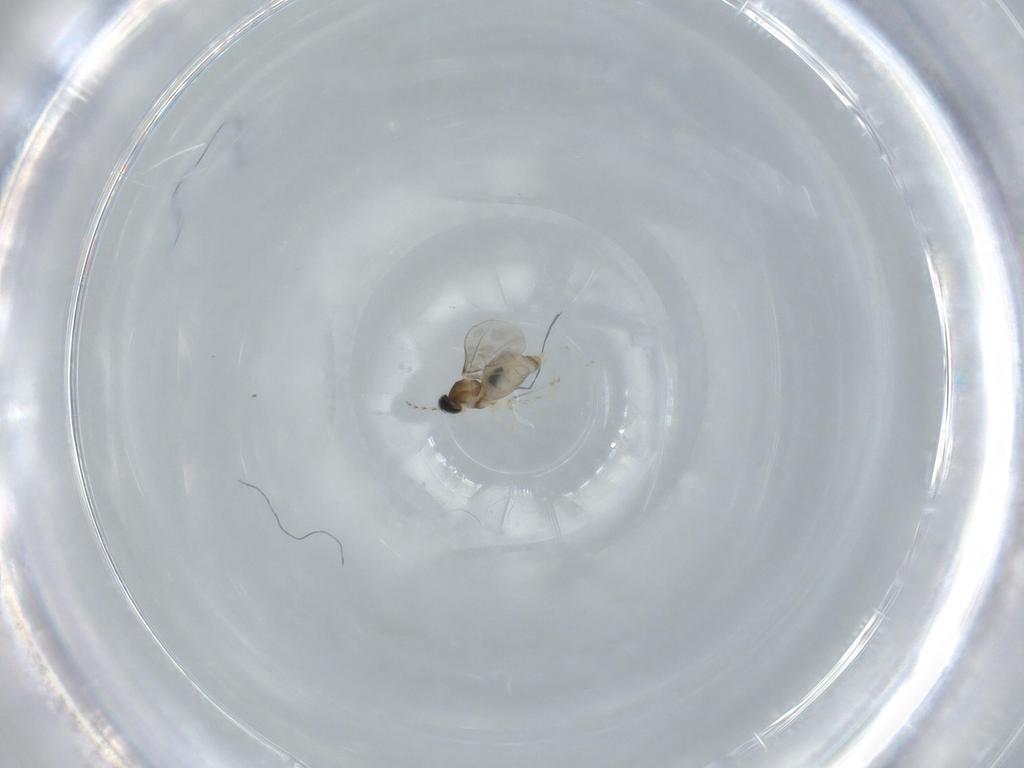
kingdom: Animalia
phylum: Arthropoda
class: Insecta
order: Diptera
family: Cecidomyiidae
